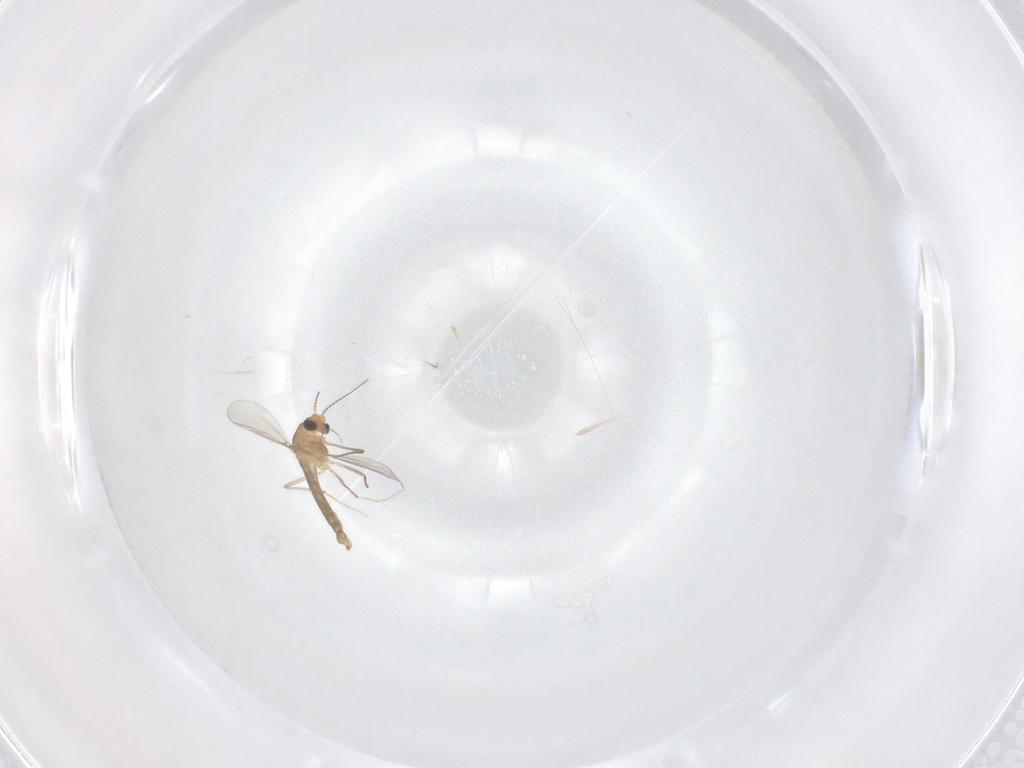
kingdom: Animalia
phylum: Arthropoda
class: Insecta
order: Diptera
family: Chironomidae
